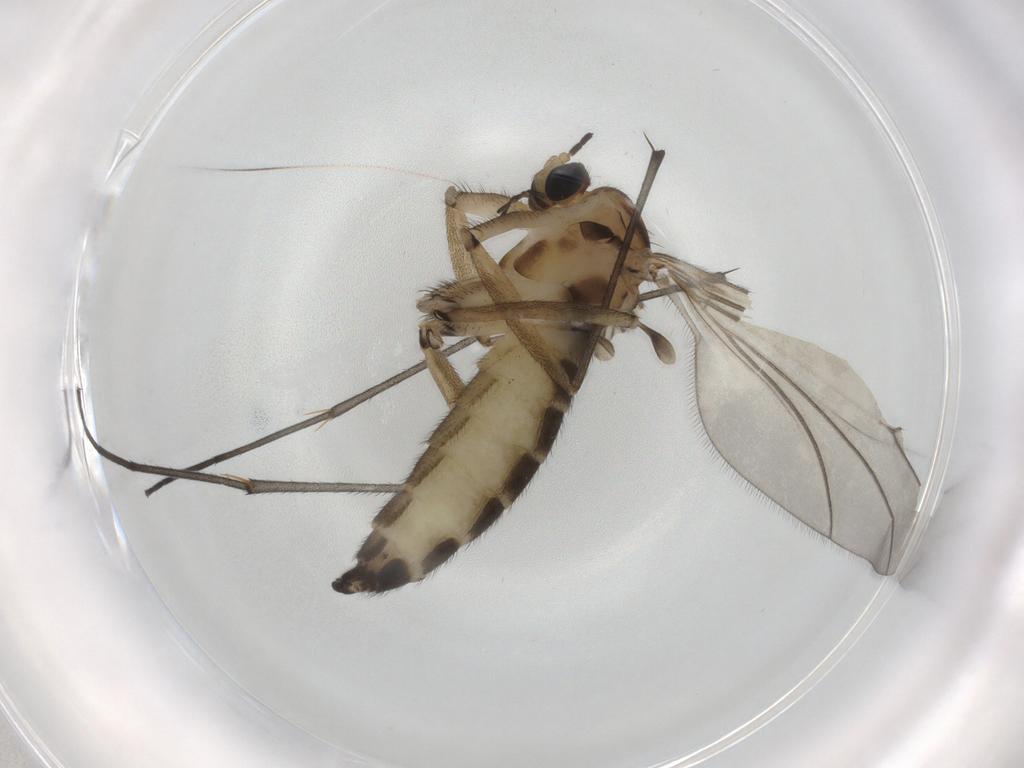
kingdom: Animalia
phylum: Arthropoda
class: Insecta
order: Diptera
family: Sciaridae
